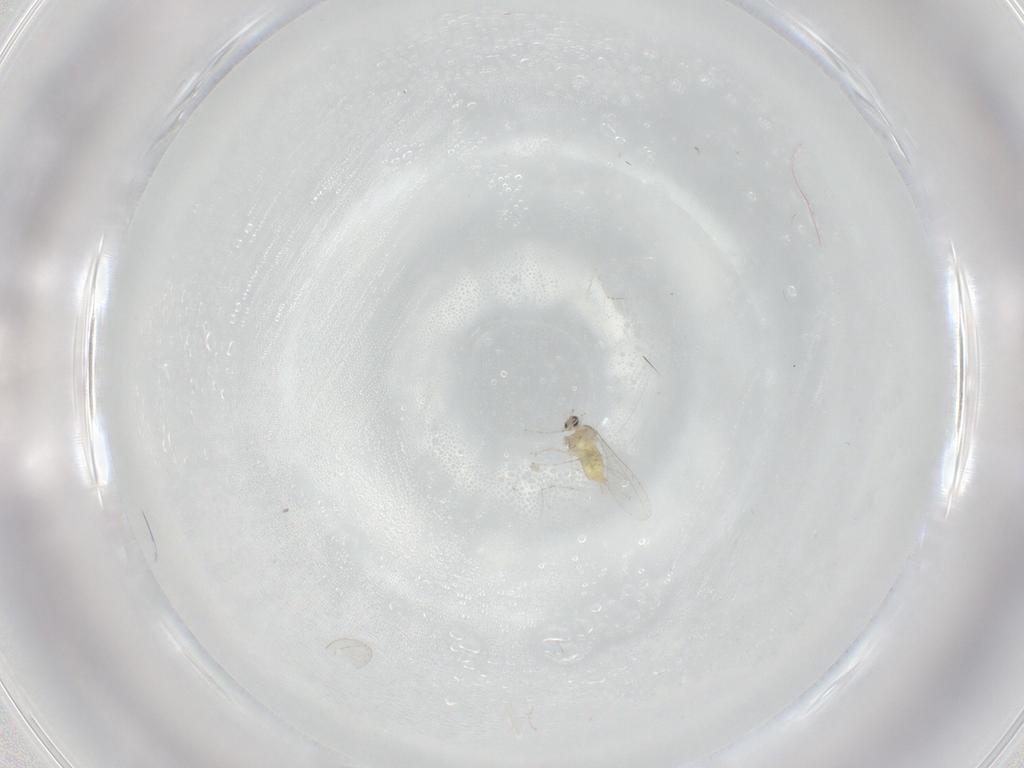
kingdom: Animalia
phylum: Arthropoda
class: Insecta
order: Diptera
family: Cecidomyiidae
